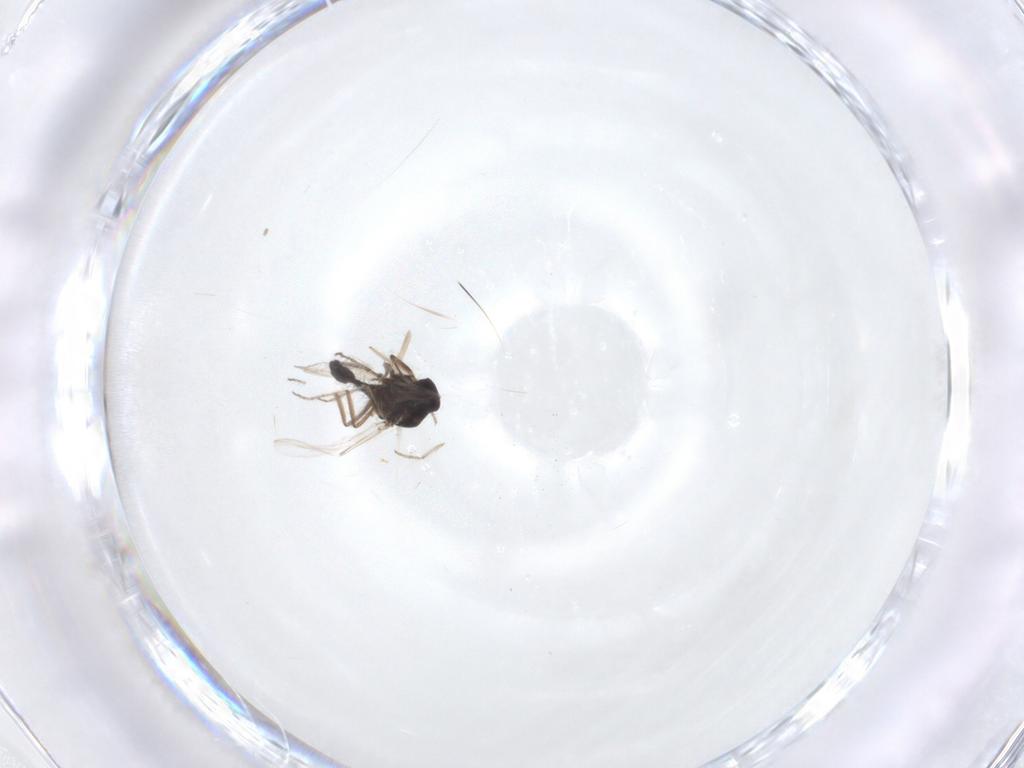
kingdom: Animalia
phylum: Arthropoda
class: Insecta
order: Diptera
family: Ceratopogonidae
